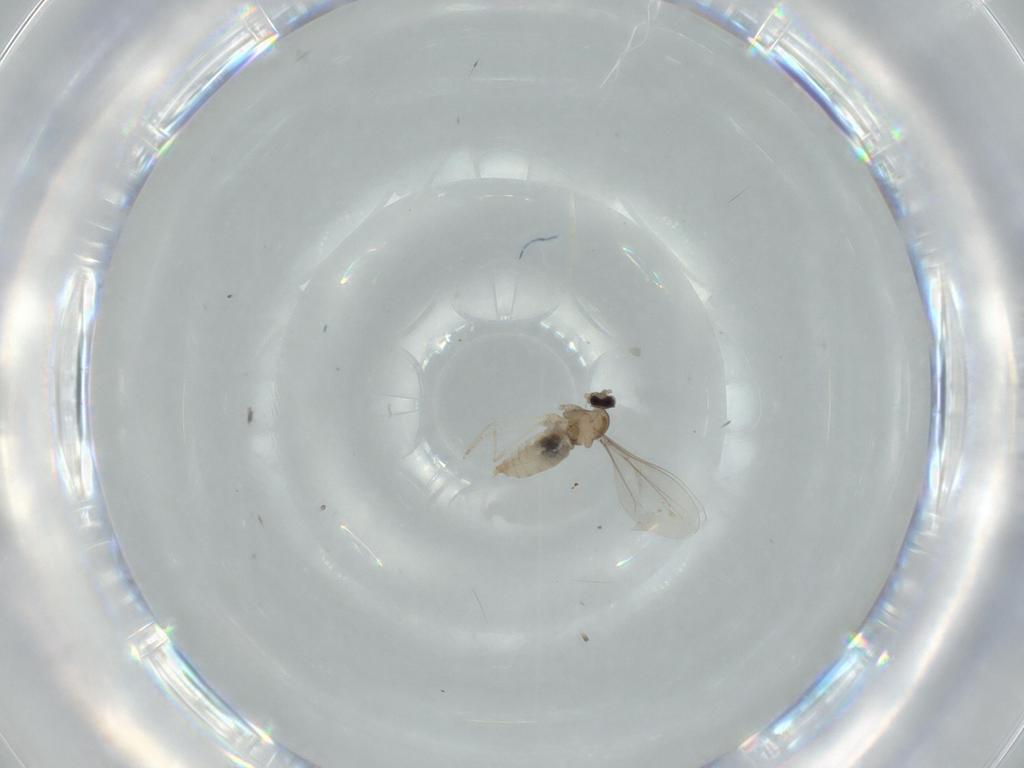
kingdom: Animalia
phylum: Arthropoda
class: Insecta
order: Diptera
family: Cecidomyiidae
